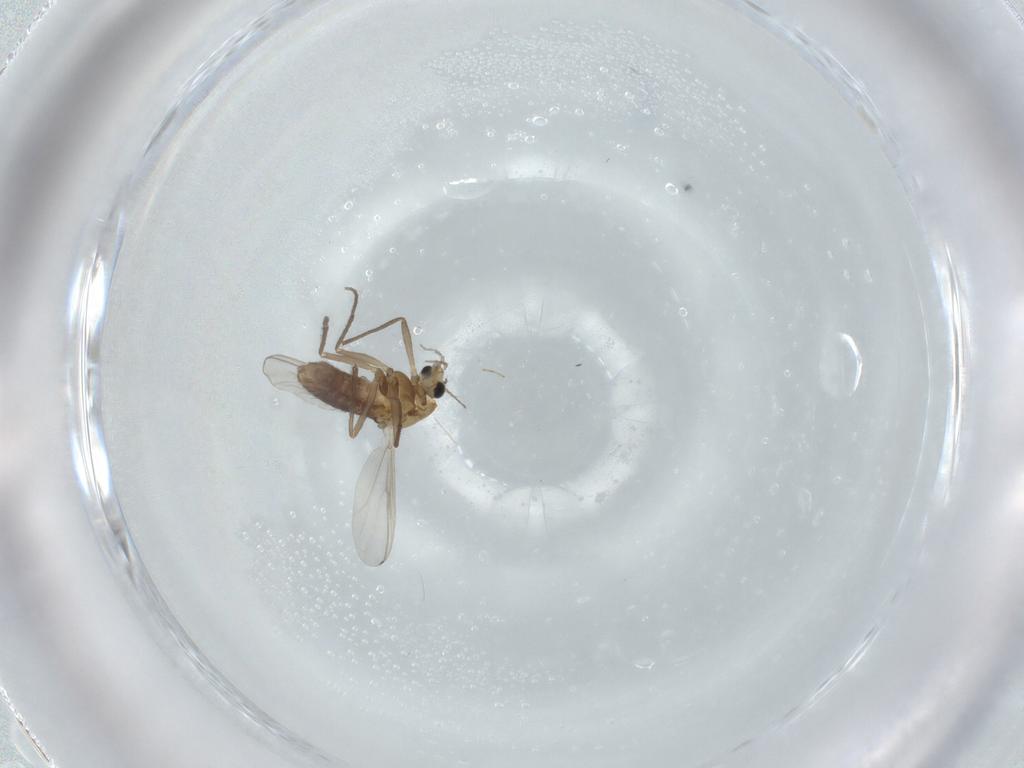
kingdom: Animalia
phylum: Arthropoda
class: Insecta
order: Diptera
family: Chironomidae
